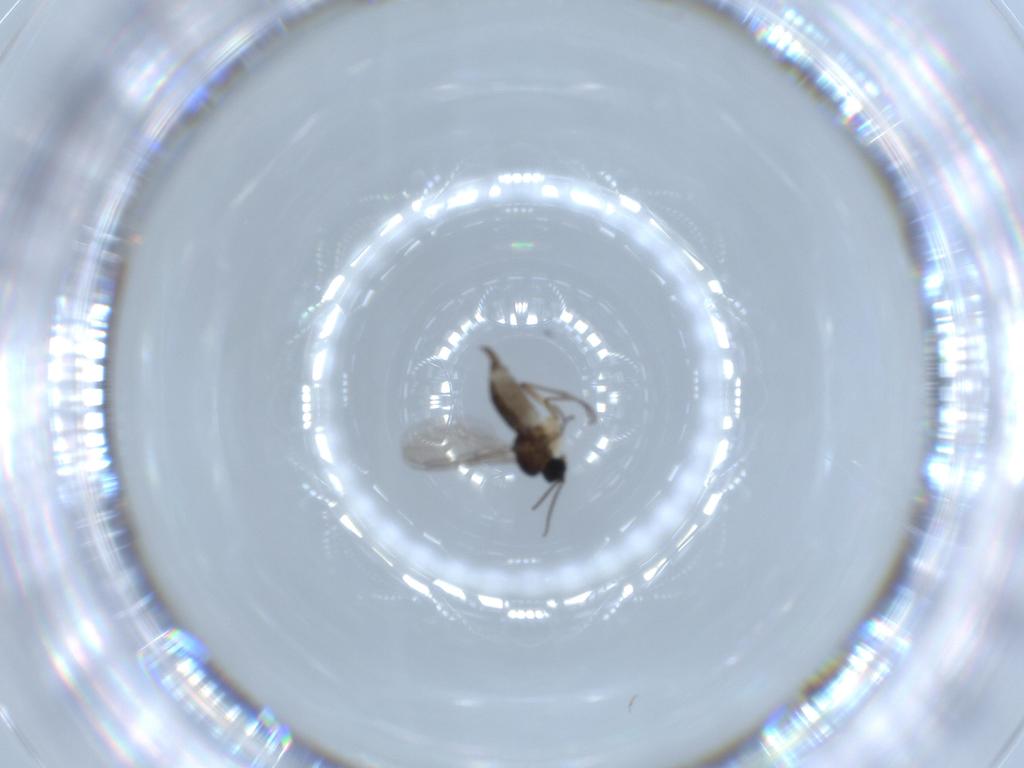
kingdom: Animalia
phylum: Arthropoda
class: Insecta
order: Diptera
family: Sciaridae
